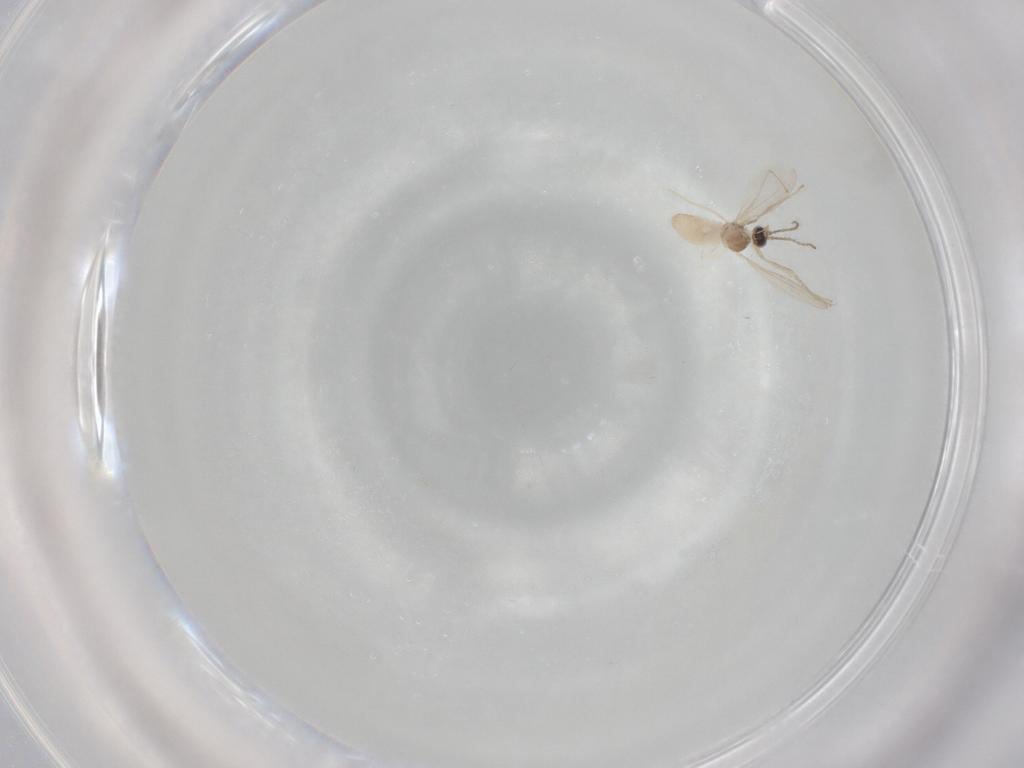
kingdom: Animalia
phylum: Arthropoda
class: Insecta
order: Diptera
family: Cecidomyiidae
